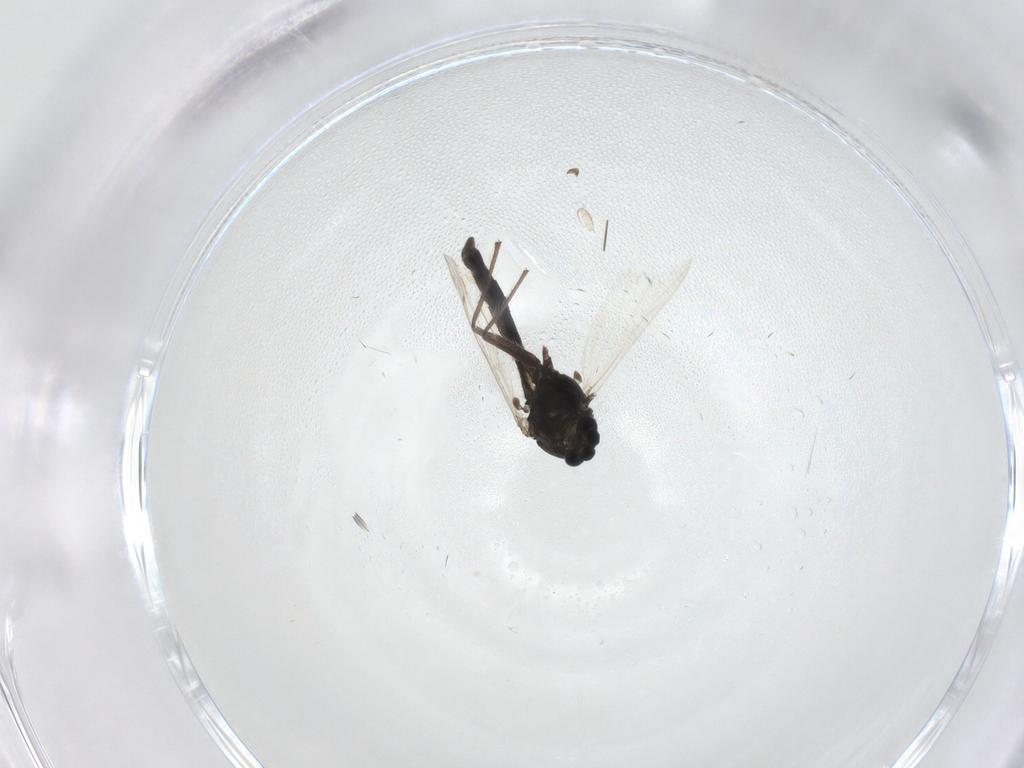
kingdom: Animalia
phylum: Arthropoda
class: Insecta
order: Diptera
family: Chironomidae
